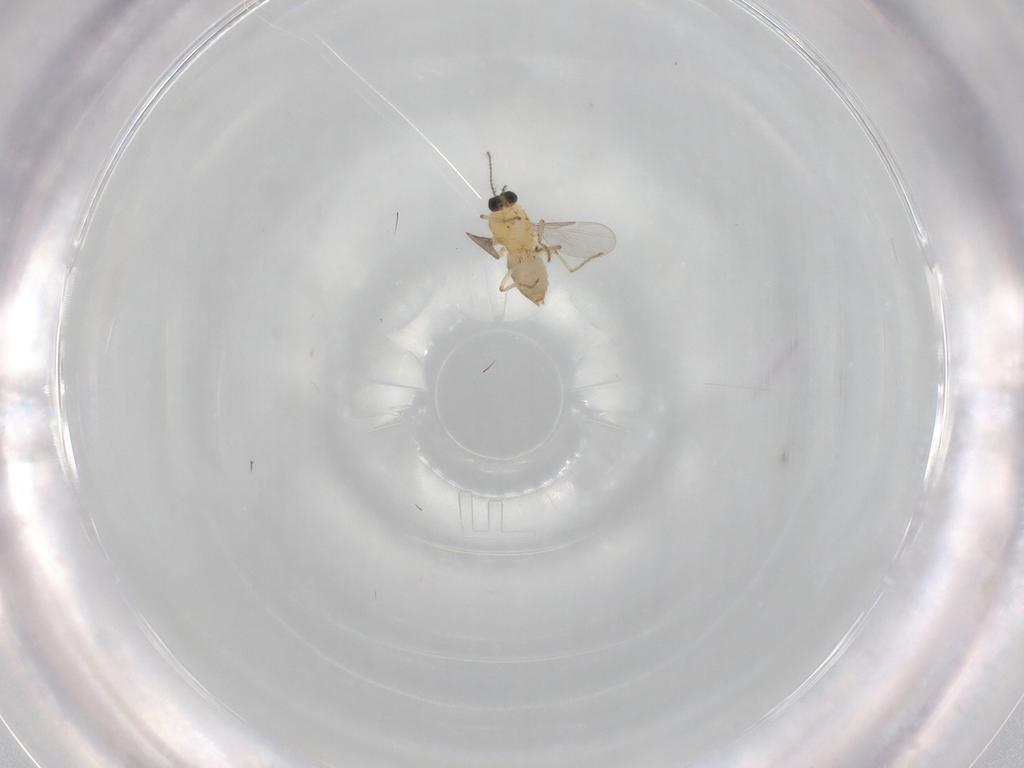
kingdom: Animalia
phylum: Arthropoda
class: Insecta
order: Diptera
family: Ceratopogonidae
